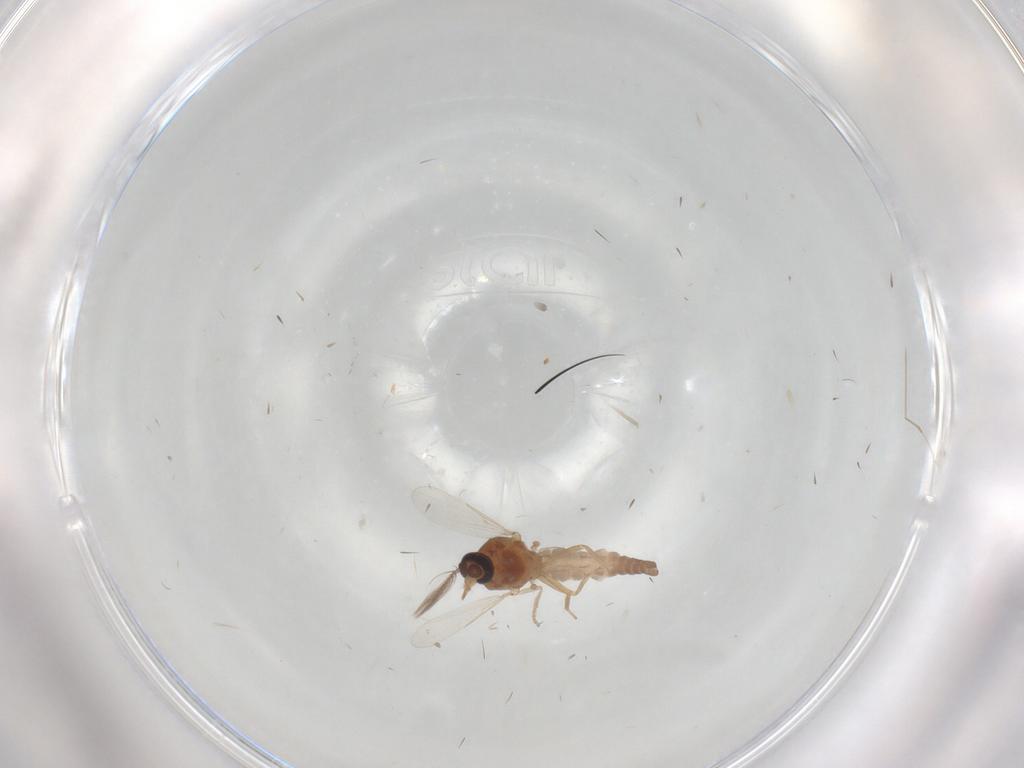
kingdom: Animalia
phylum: Arthropoda
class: Insecta
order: Diptera
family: Ceratopogonidae
